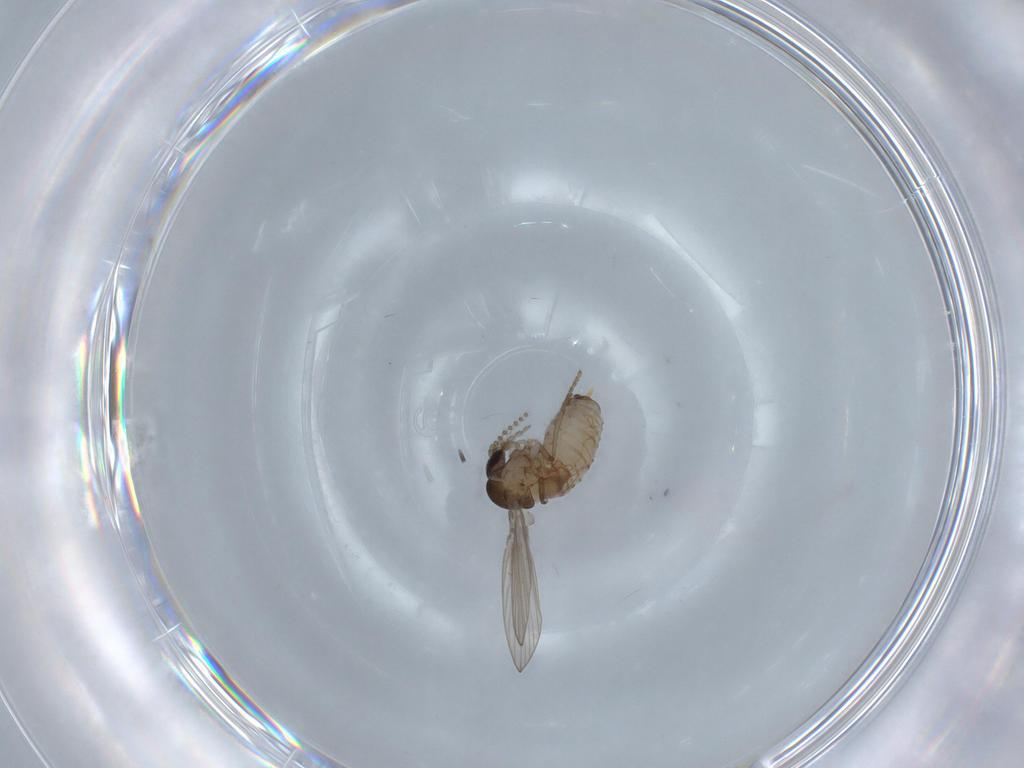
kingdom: Animalia
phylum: Arthropoda
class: Insecta
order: Diptera
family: Psychodidae
